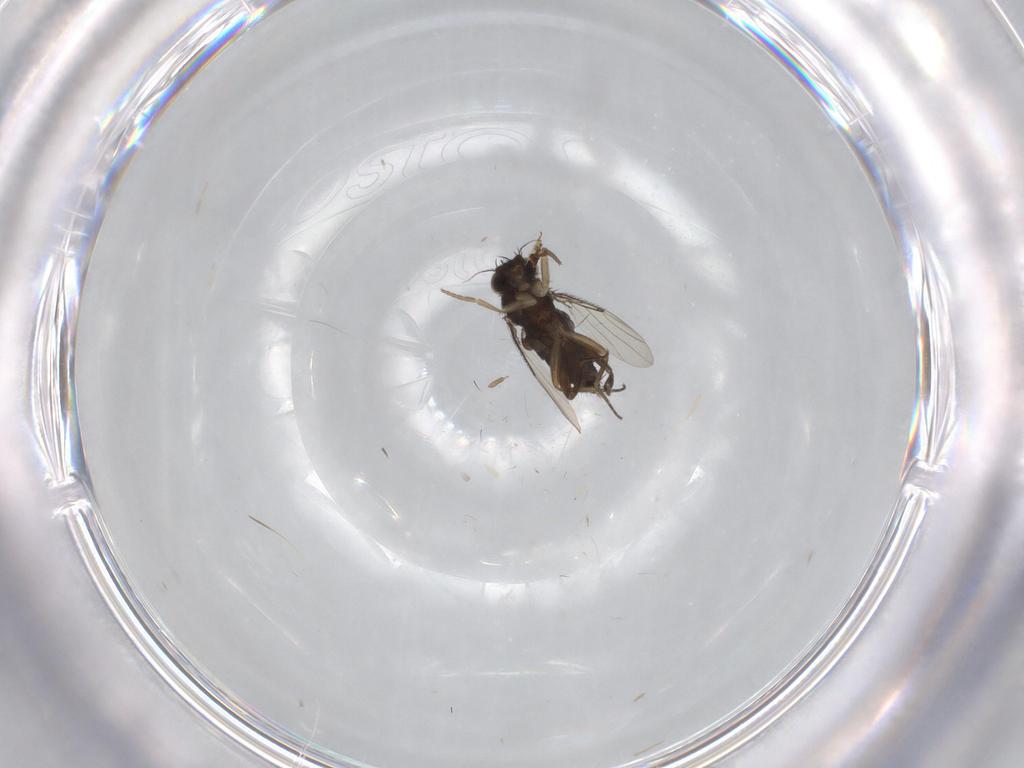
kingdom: Animalia
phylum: Arthropoda
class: Insecta
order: Diptera
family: Phoridae
